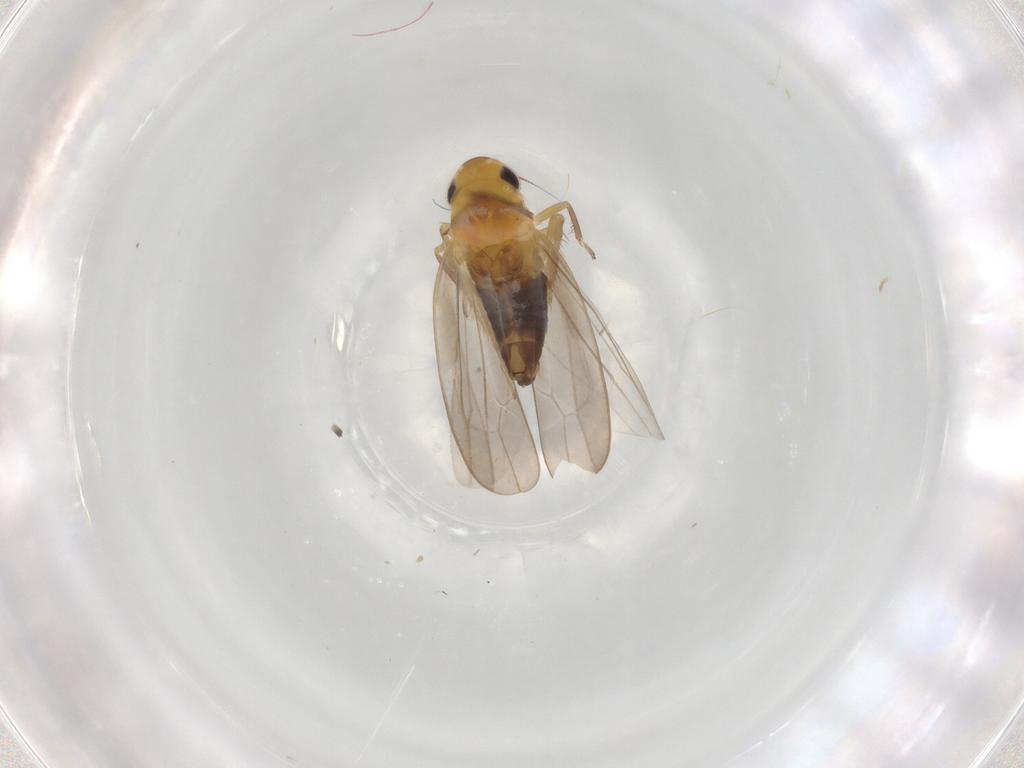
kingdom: Animalia
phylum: Arthropoda
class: Insecta
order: Hemiptera
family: Cicadellidae
